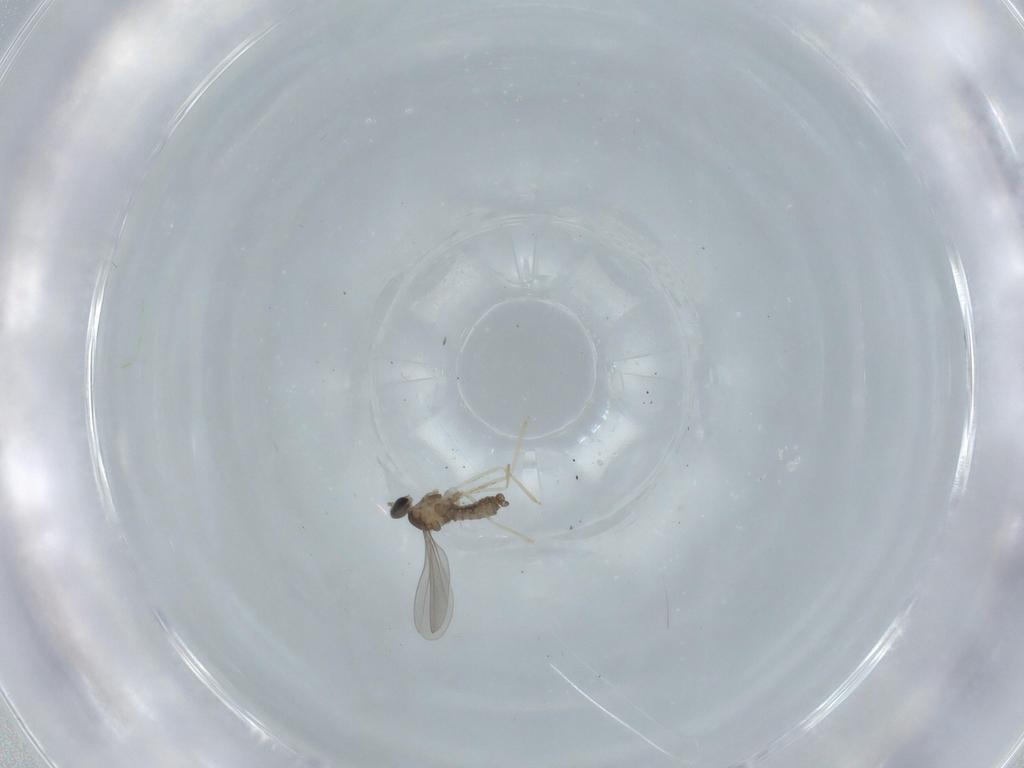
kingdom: Animalia
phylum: Arthropoda
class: Insecta
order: Diptera
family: Cecidomyiidae
